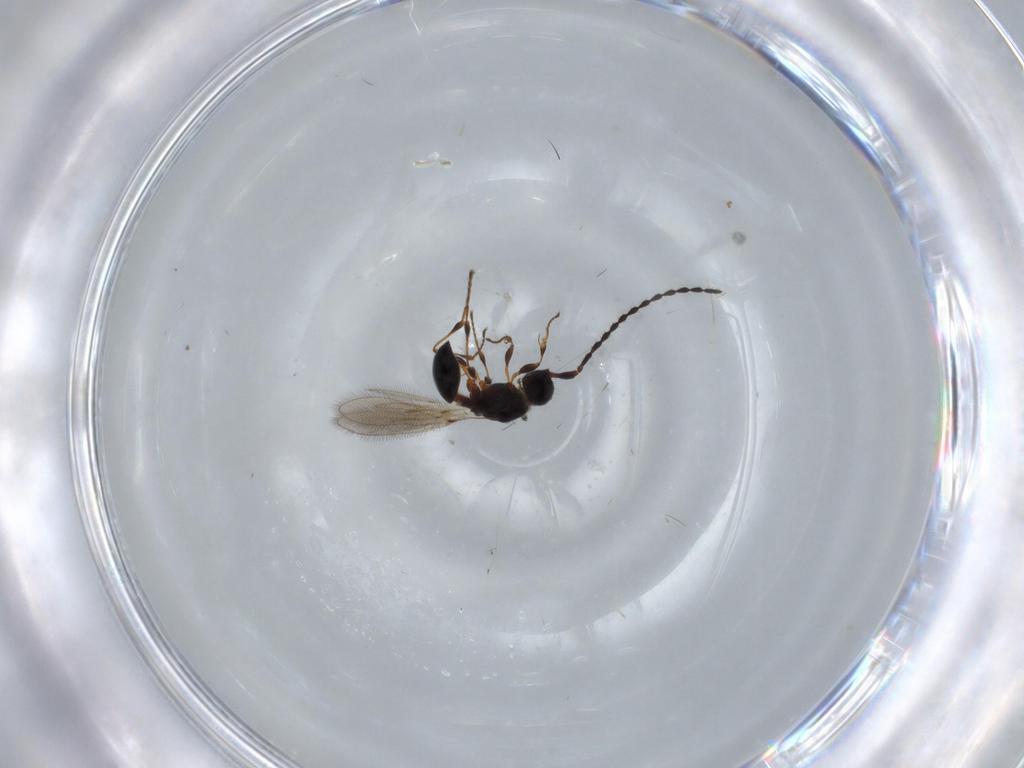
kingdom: Animalia
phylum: Arthropoda
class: Insecta
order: Hymenoptera
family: Diapriidae
